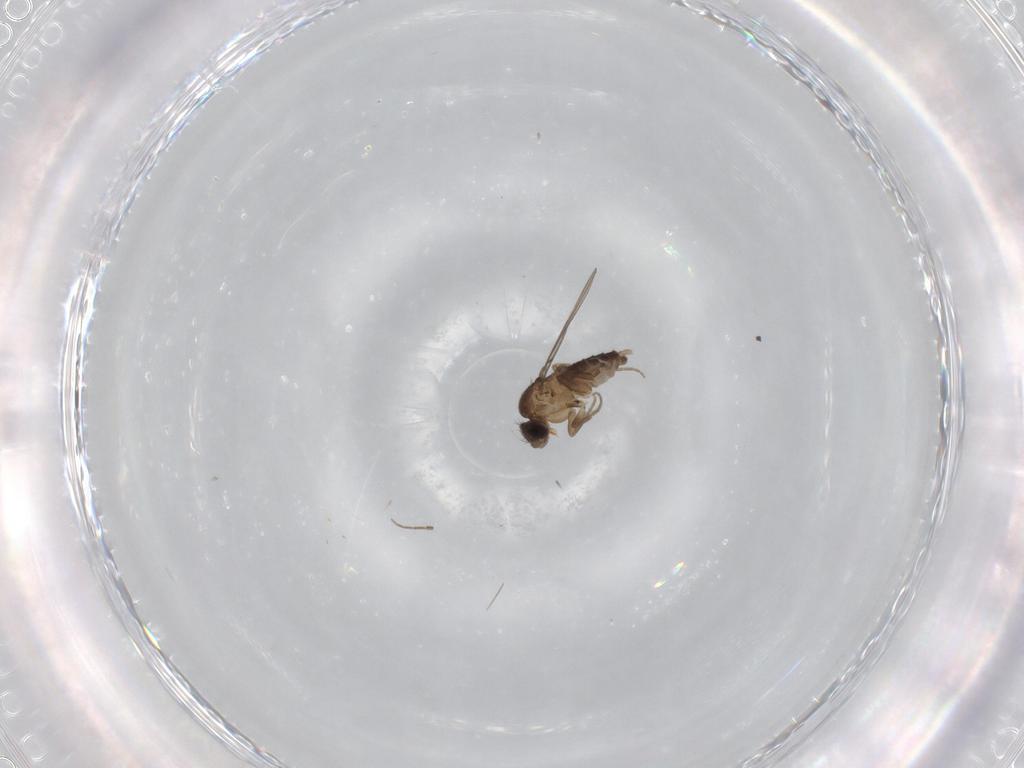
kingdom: Animalia
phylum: Arthropoda
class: Insecta
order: Diptera
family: Phoridae
